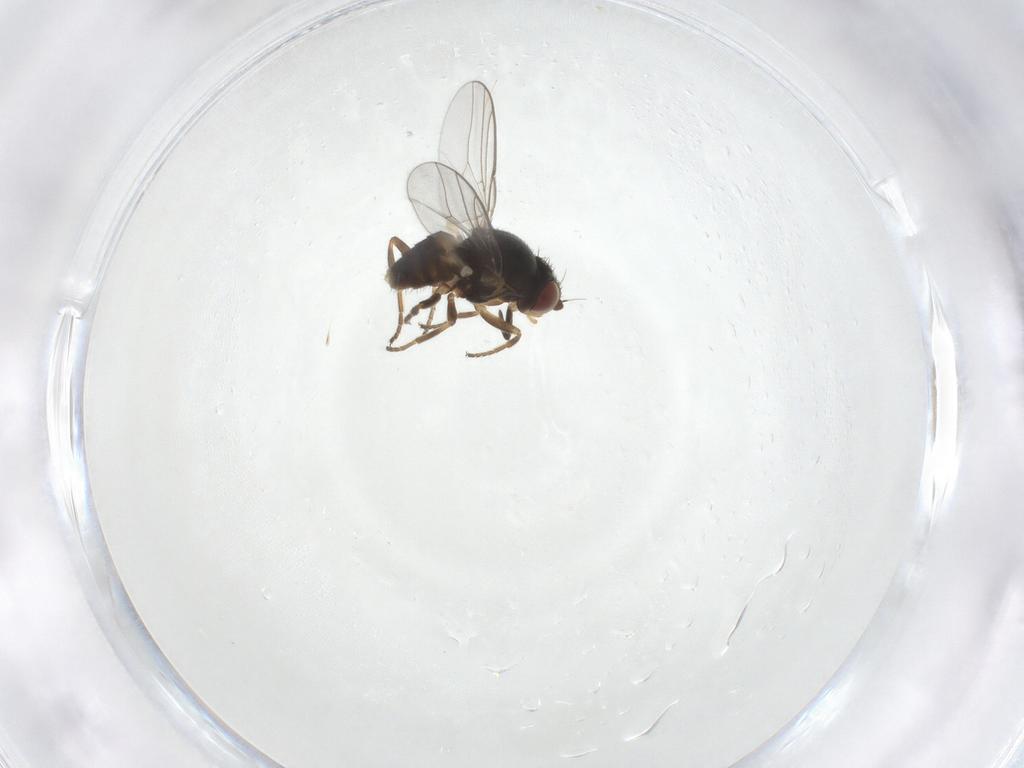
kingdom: Animalia
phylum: Arthropoda
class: Insecta
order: Diptera
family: Chloropidae
